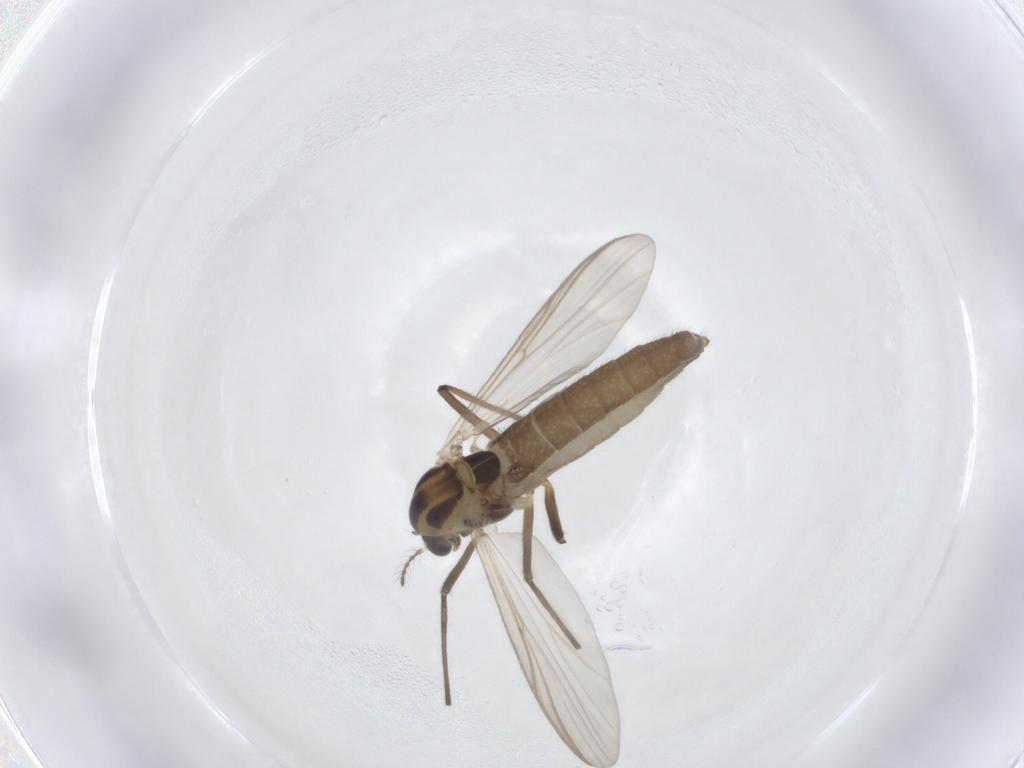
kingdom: Animalia
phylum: Arthropoda
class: Insecta
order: Diptera
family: Chironomidae
